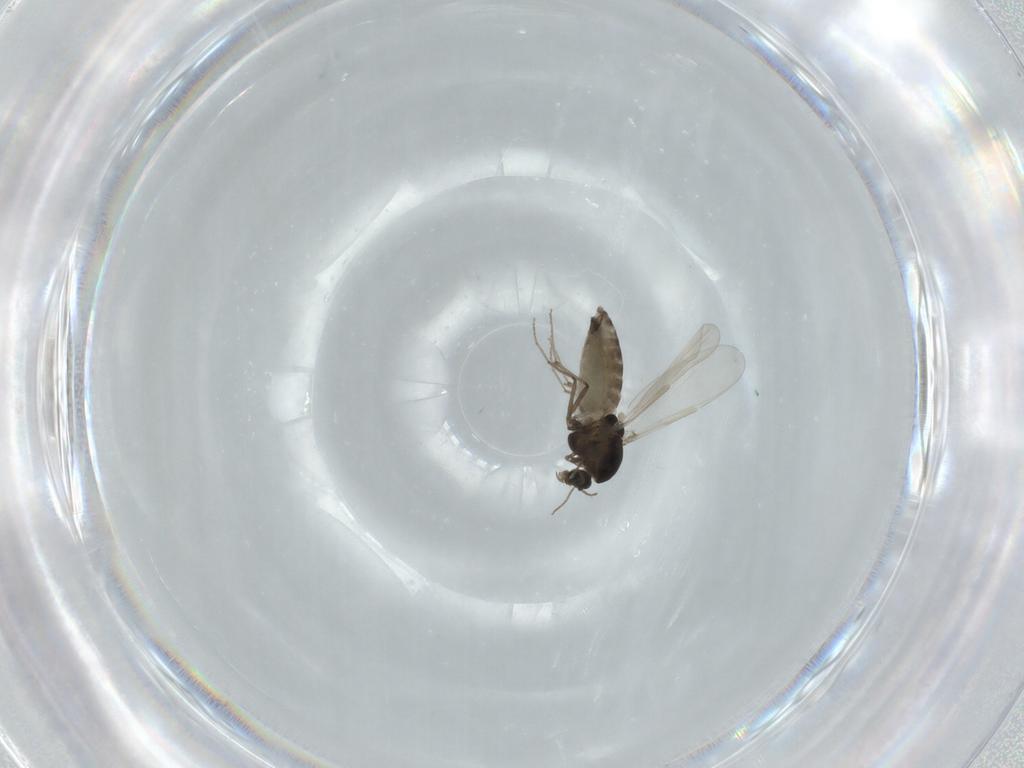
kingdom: Animalia
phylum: Arthropoda
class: Insecta
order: Diptera
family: Chironomidae
